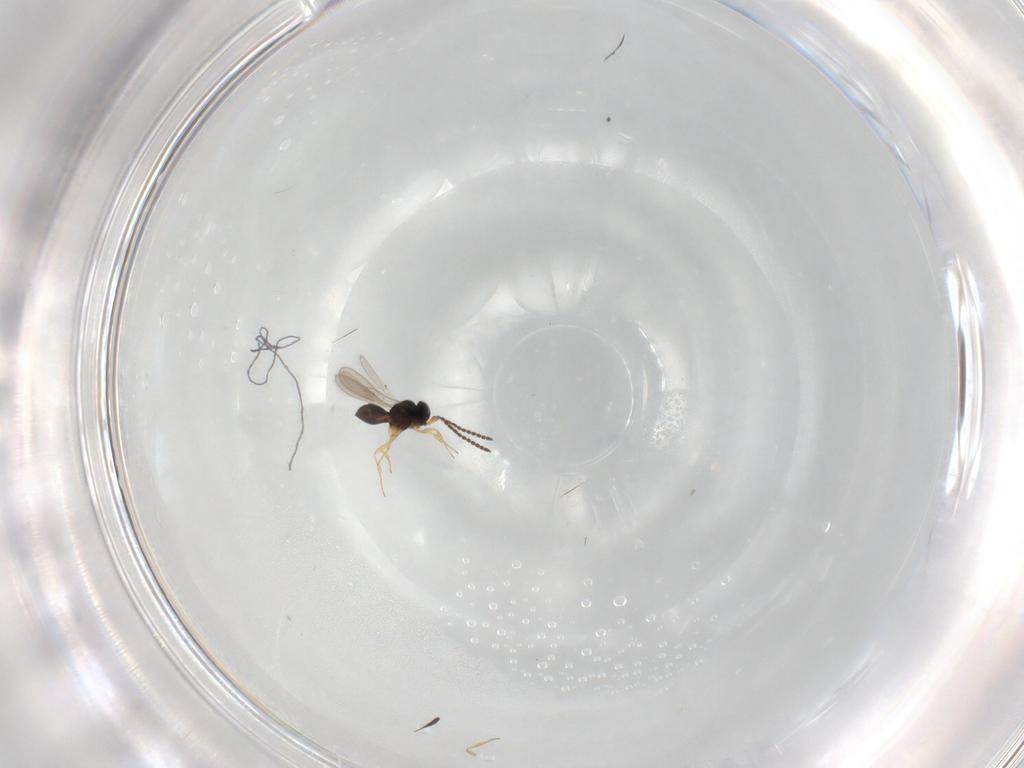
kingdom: Animalia
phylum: Arthropoda
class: Insecta
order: Hymenoptera
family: Scelionidae
